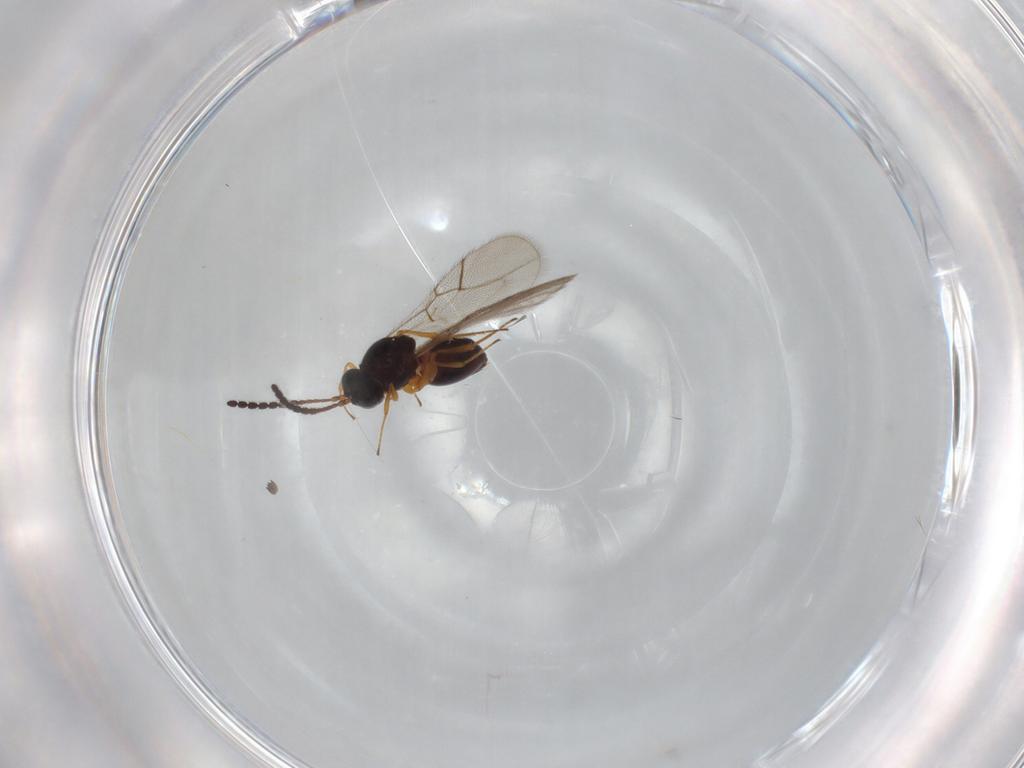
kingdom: Animalia
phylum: Arthropoda
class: Insecta
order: Hymenoptera
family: Figitidae
